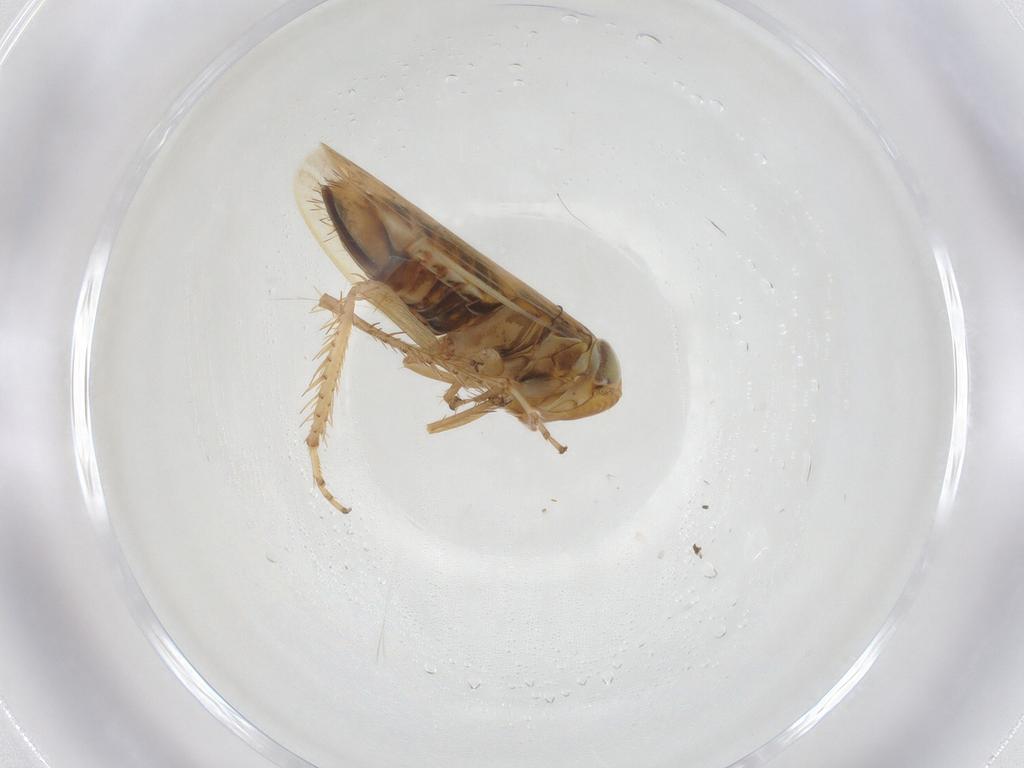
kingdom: Animalia
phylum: Arthropoda
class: Insecta
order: Hemiptera
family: Cicadellidae
